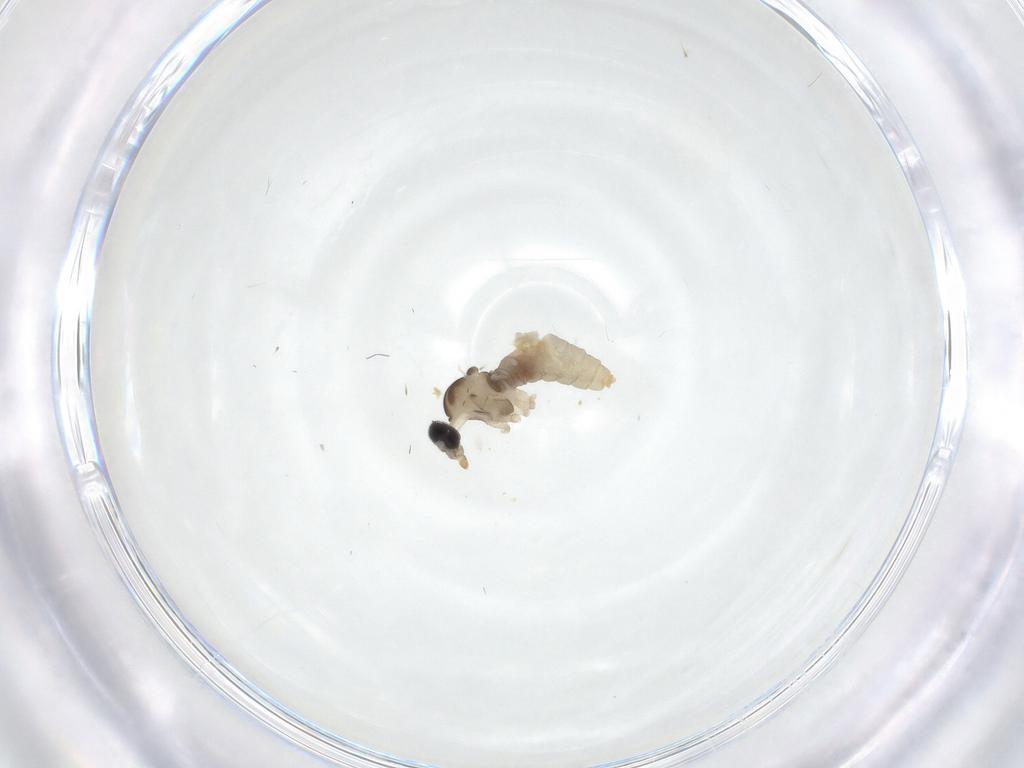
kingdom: Animalia
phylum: Arthropoda
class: Insecta
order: Diptera
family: Cecidomyiidae
